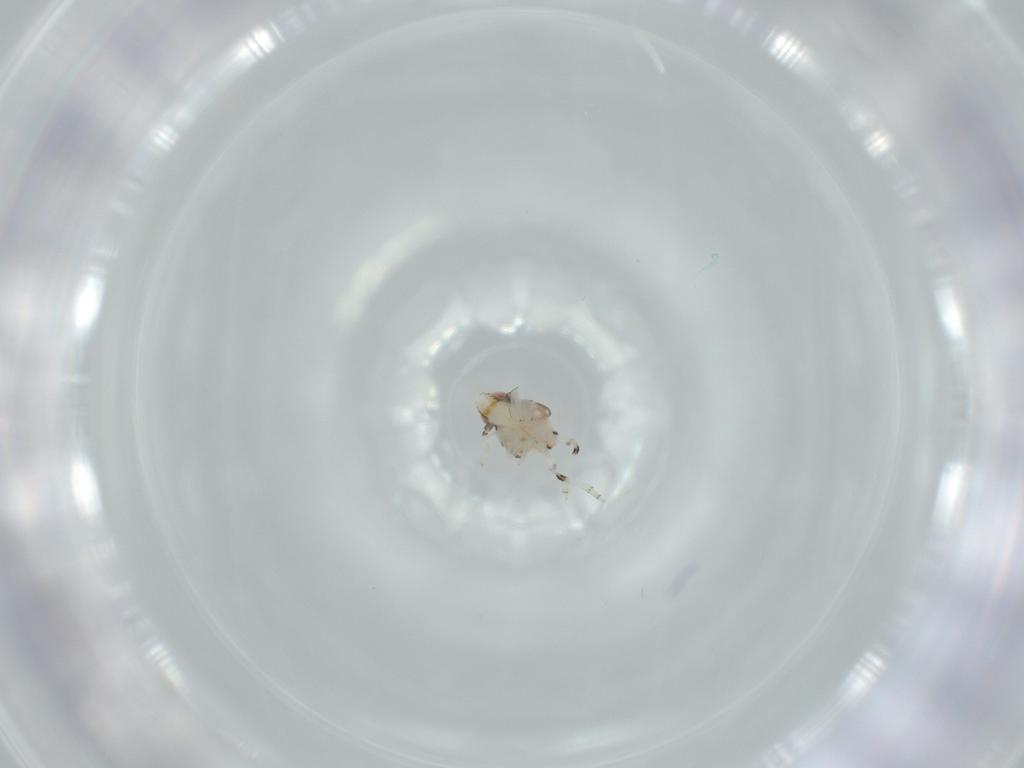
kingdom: Animalia
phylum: Arthropoda
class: Insecta
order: Hemiptera
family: Nogodinidae
